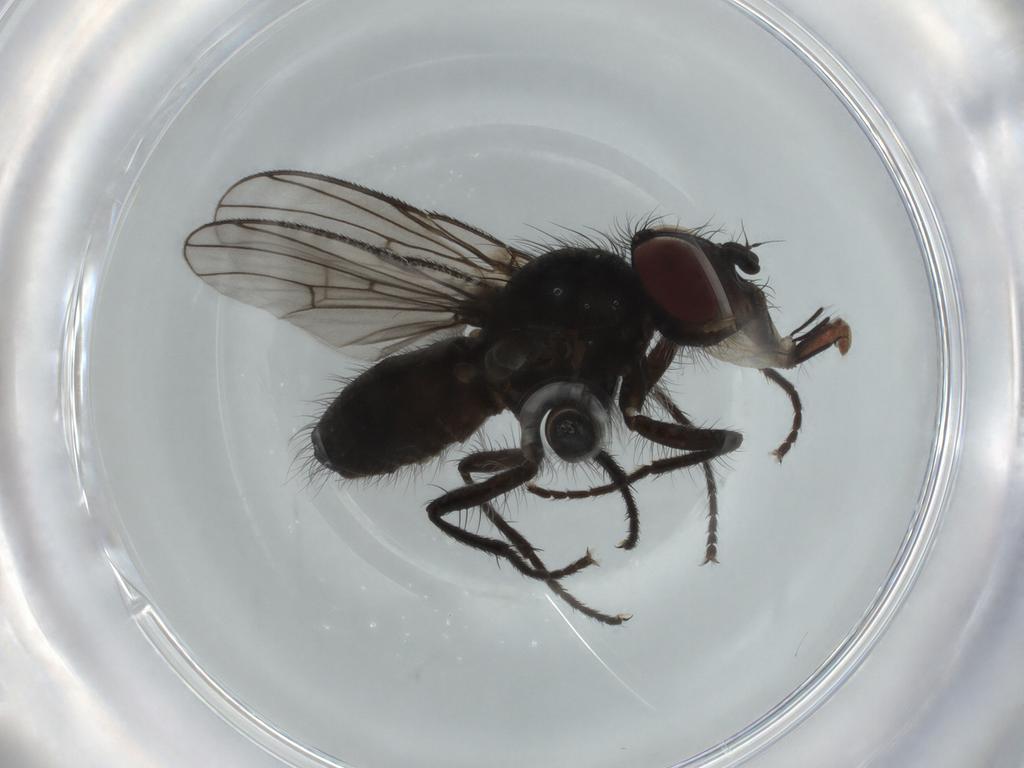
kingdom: Animalia
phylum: Arthropoda
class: Insecta
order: Diptera
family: Muscidae
